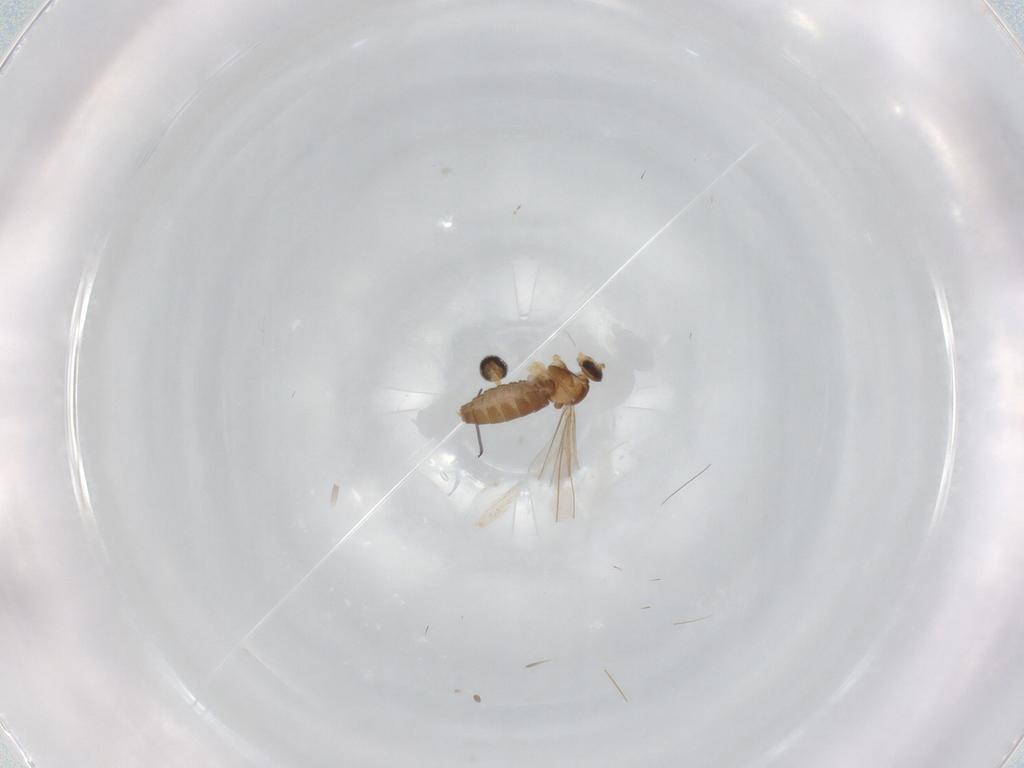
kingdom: Animalia
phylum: Arthropoda
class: Insecta
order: Diptera
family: Cecidomyiidae
